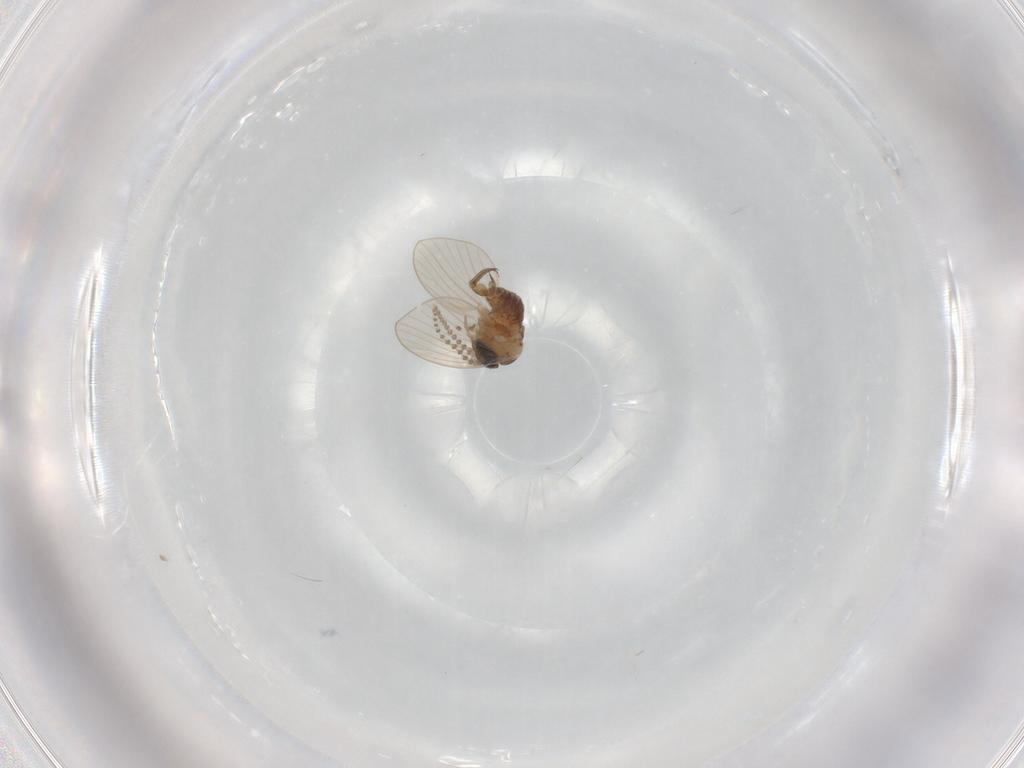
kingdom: Animalia
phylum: Arthropoda
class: Insecta
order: Diptera
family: Psychodidae
